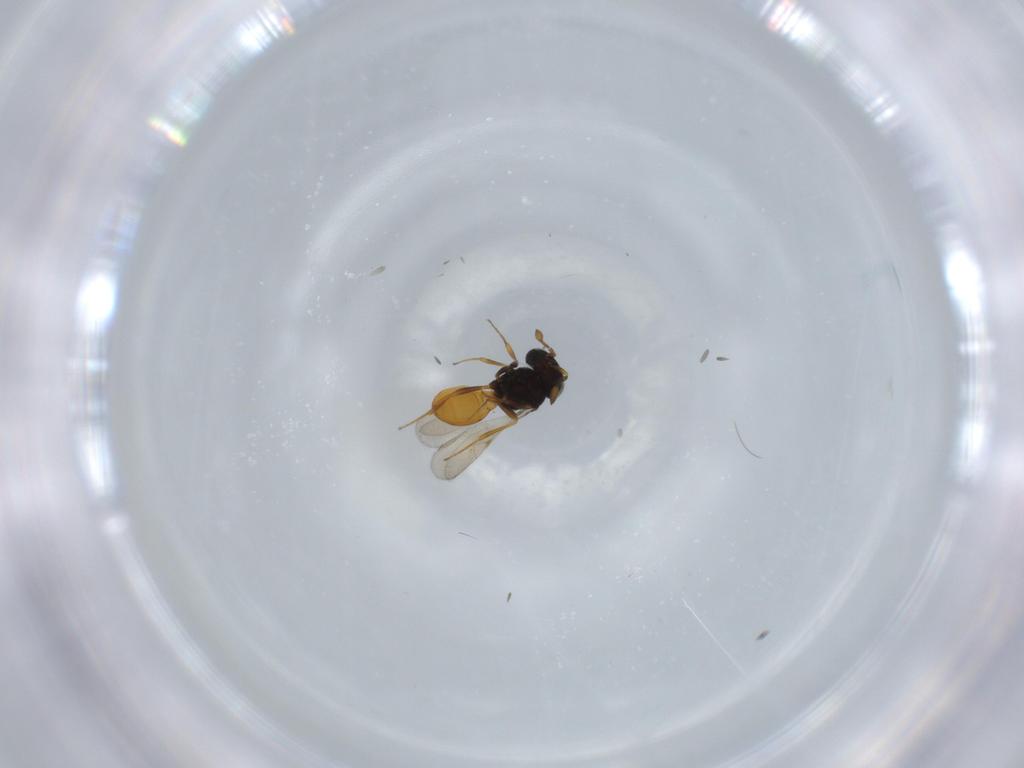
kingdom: Animalia
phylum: Arthropoda
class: Insecta
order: Hymenoptera
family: Scelionidae
